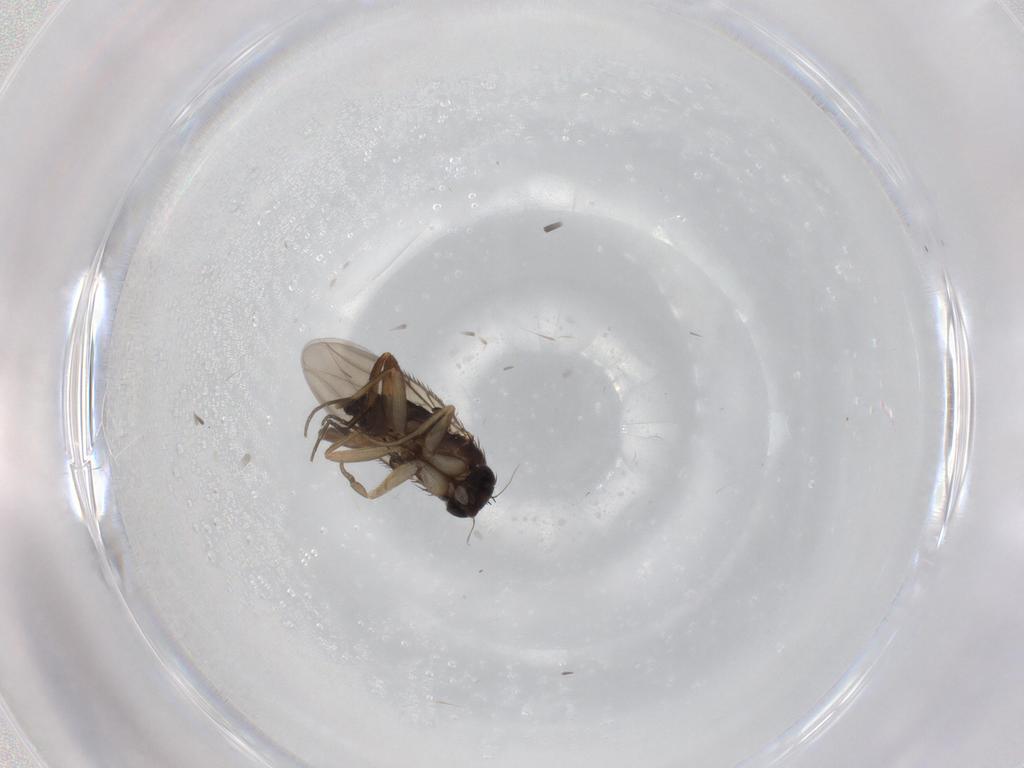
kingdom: Animalia
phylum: Arthropoda
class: Insecta
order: Diptera
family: Phoridae
